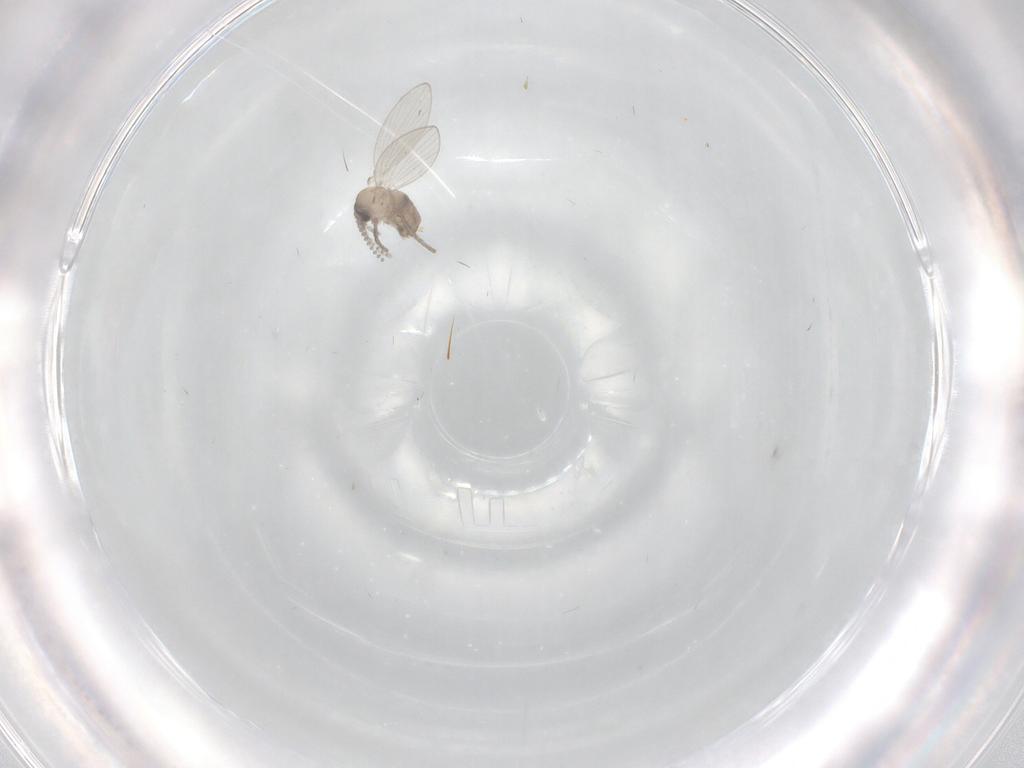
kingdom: Animalia
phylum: Arthropoda
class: Insecta
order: Diptera
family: Psychodidae
